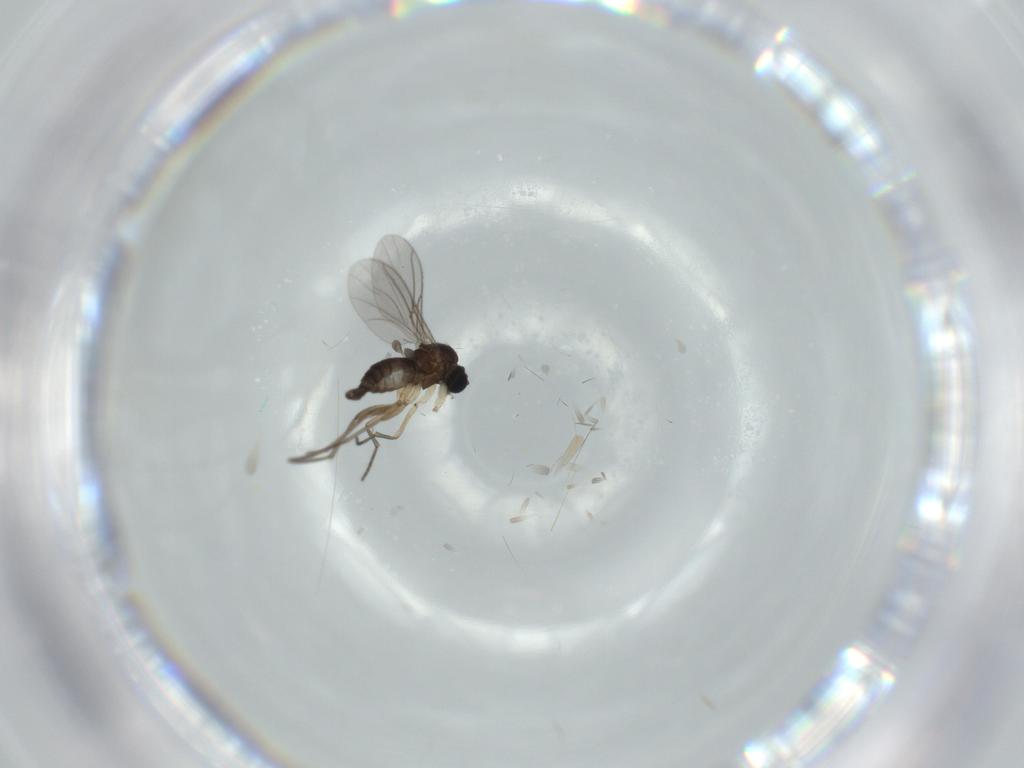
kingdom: Animalia
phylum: Arthropoda
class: Insecta
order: Diptera
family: Sciaridae
